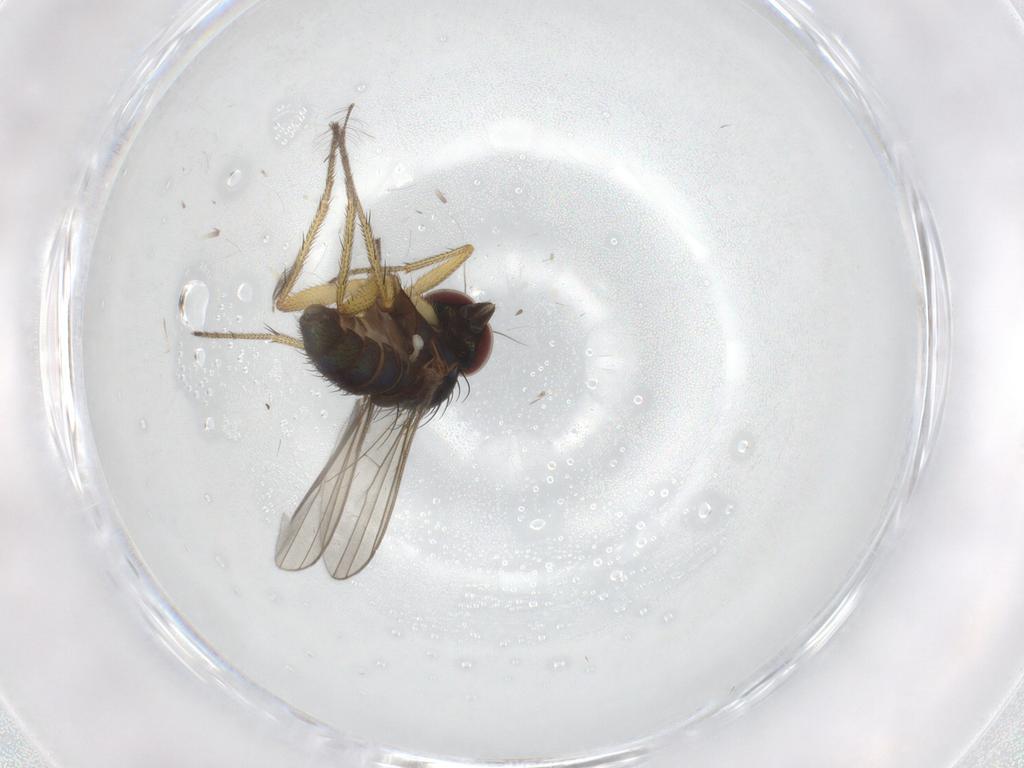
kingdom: Animalia
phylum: Arthropoda
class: Insecta
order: Diptera
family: Dolichopodidae
